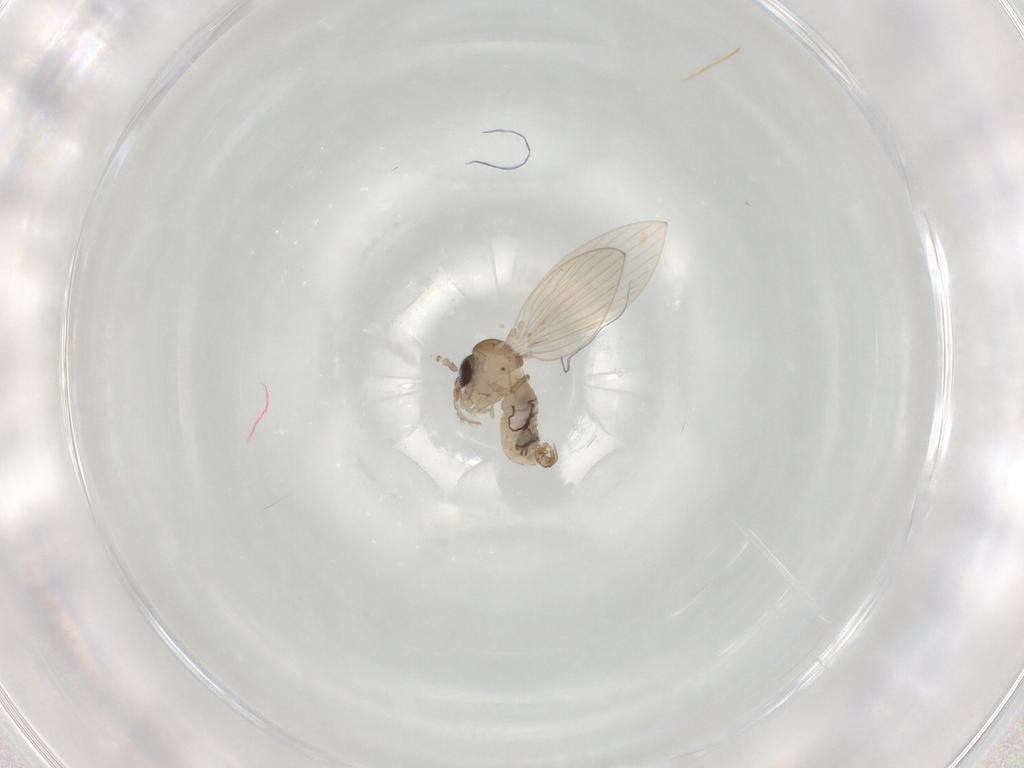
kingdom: Animalia
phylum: Arthropoda
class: Insecta
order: Diptera
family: Psychodidae
